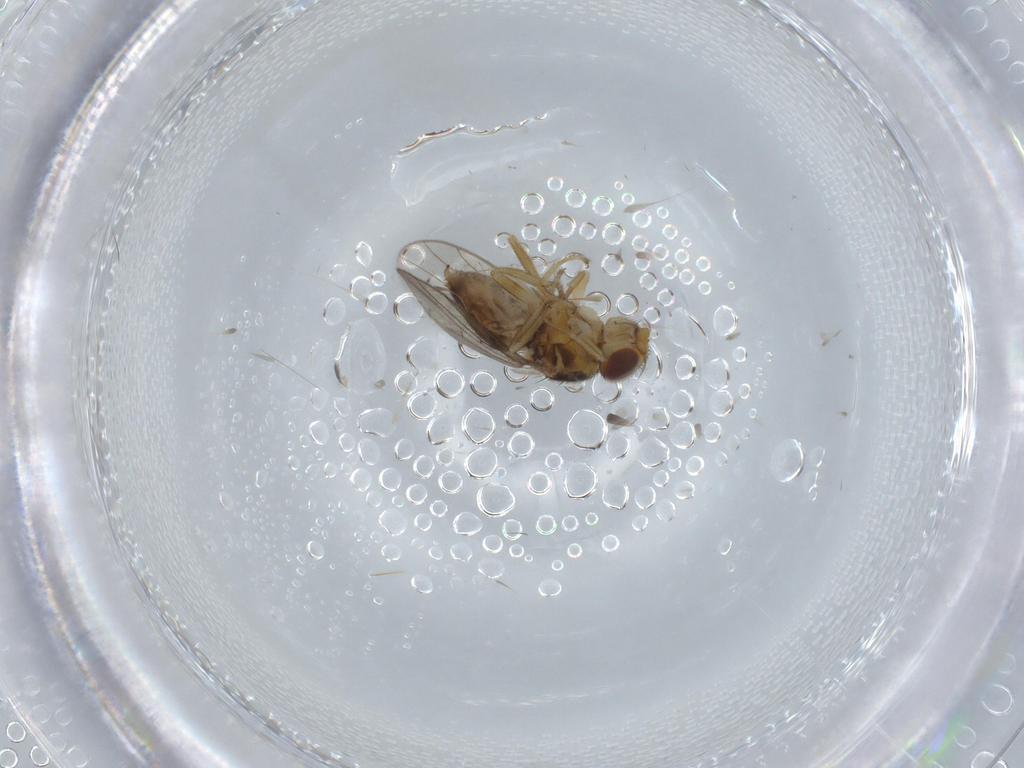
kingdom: Animalia
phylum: Arthropoda
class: Insecta
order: Diptera
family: Chloropidae
